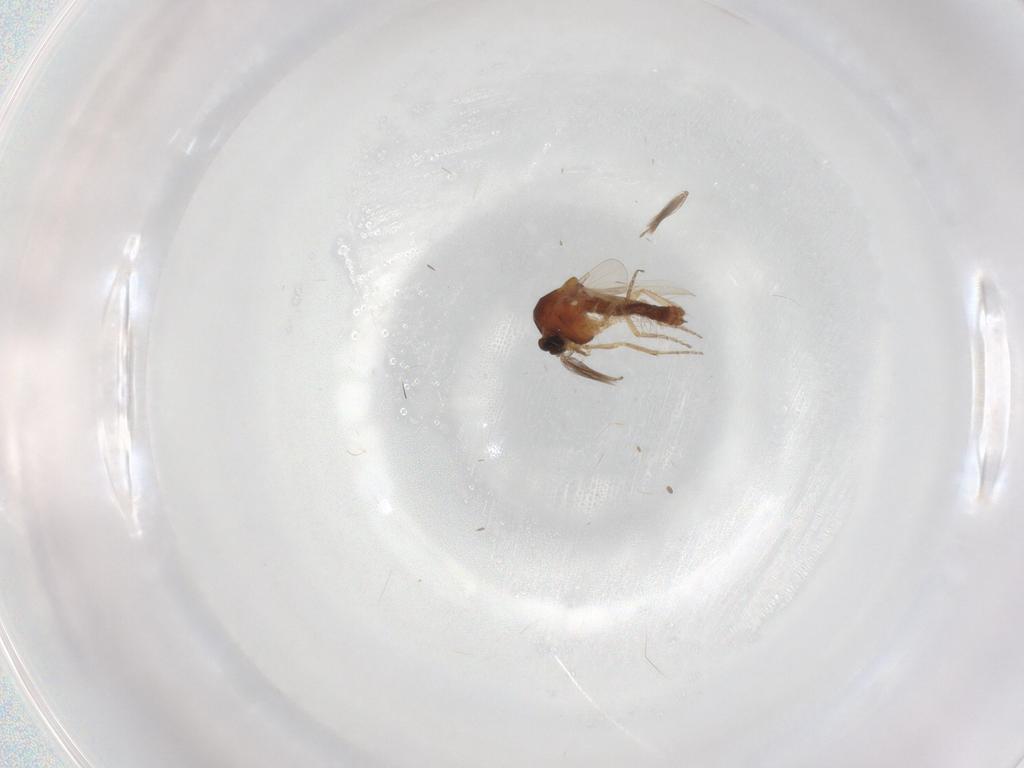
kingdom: Animalia
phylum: Arthropoda
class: Insecta
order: Diptera
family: Ceratopogonidae
